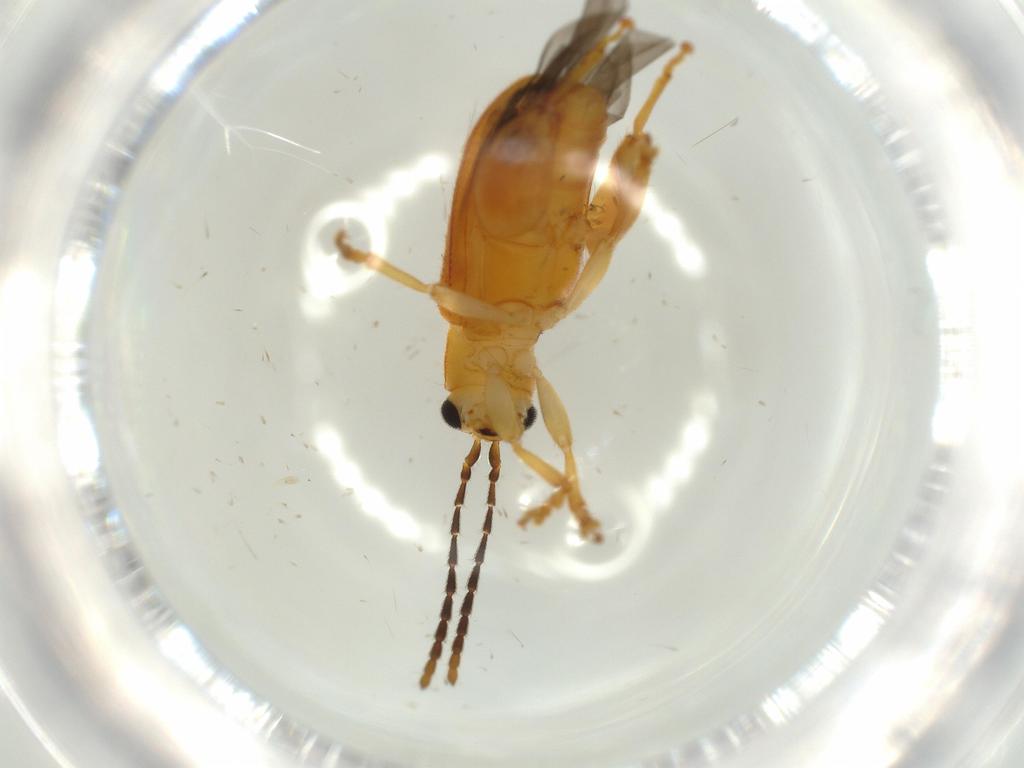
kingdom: Animalia
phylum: Arthropoda
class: Insecta
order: Coleoptera
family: Chrysomelidae
